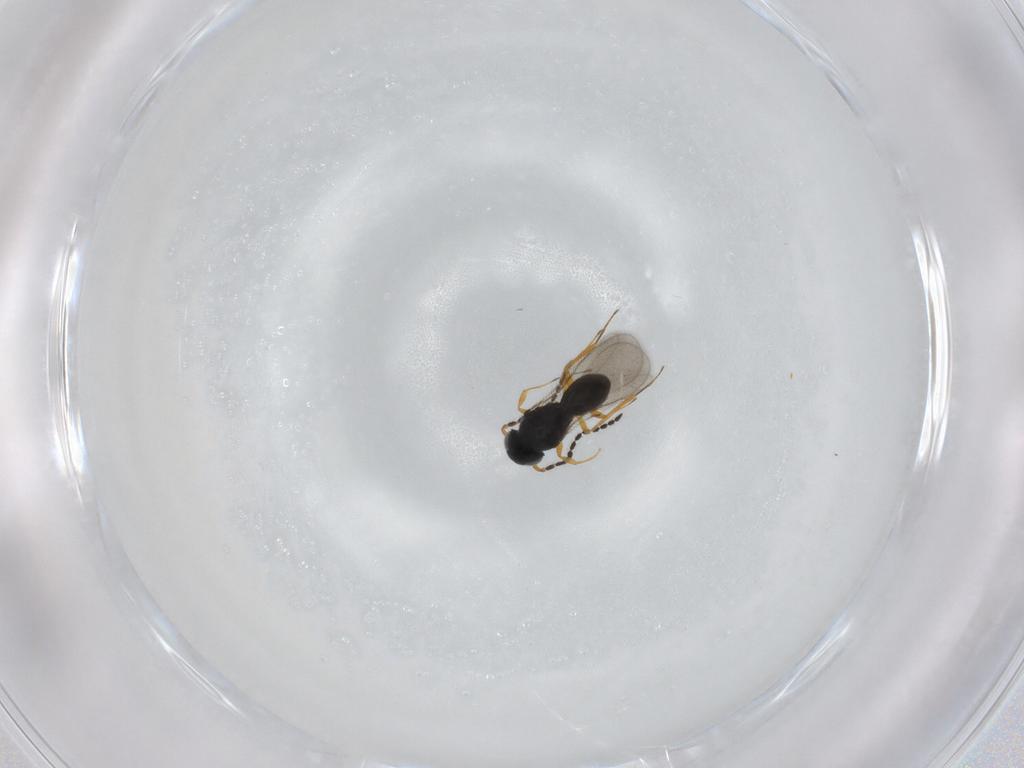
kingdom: Animalia
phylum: Arthropoda
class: Insecta
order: Hymenoptera
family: Scelionidae
